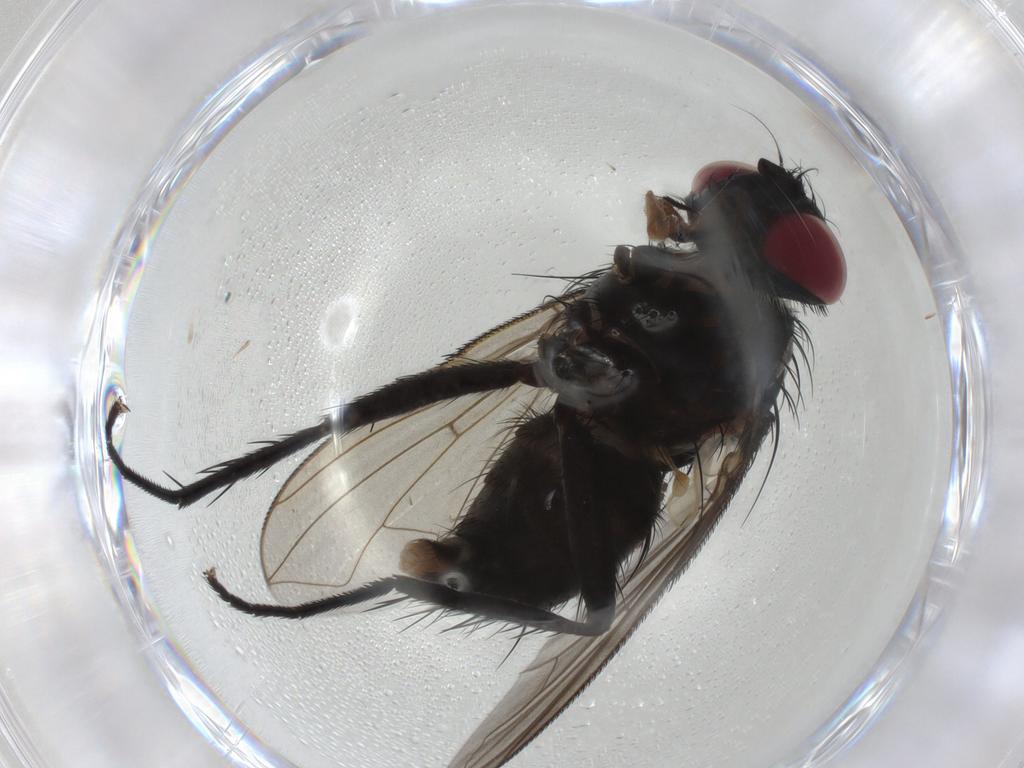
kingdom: Animalia
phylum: Arthropoda
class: Insecta
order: Diptera
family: Tachinidae
